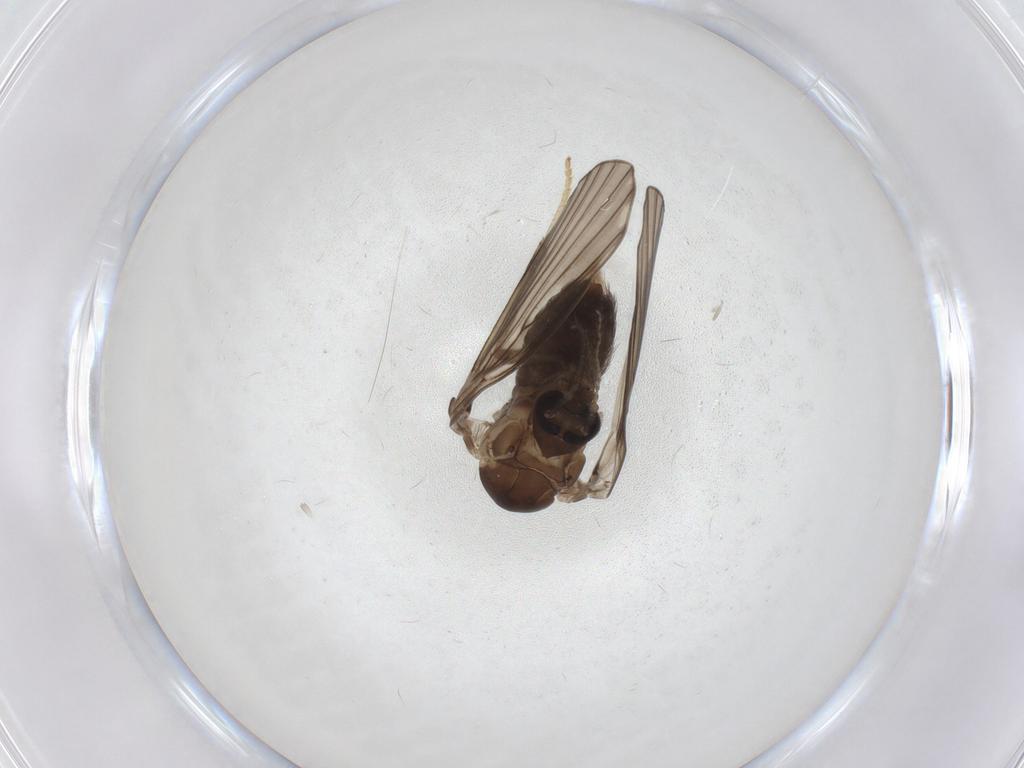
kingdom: Animalia
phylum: Arthropoda
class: Insecta
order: Diptera
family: Psychodidae
